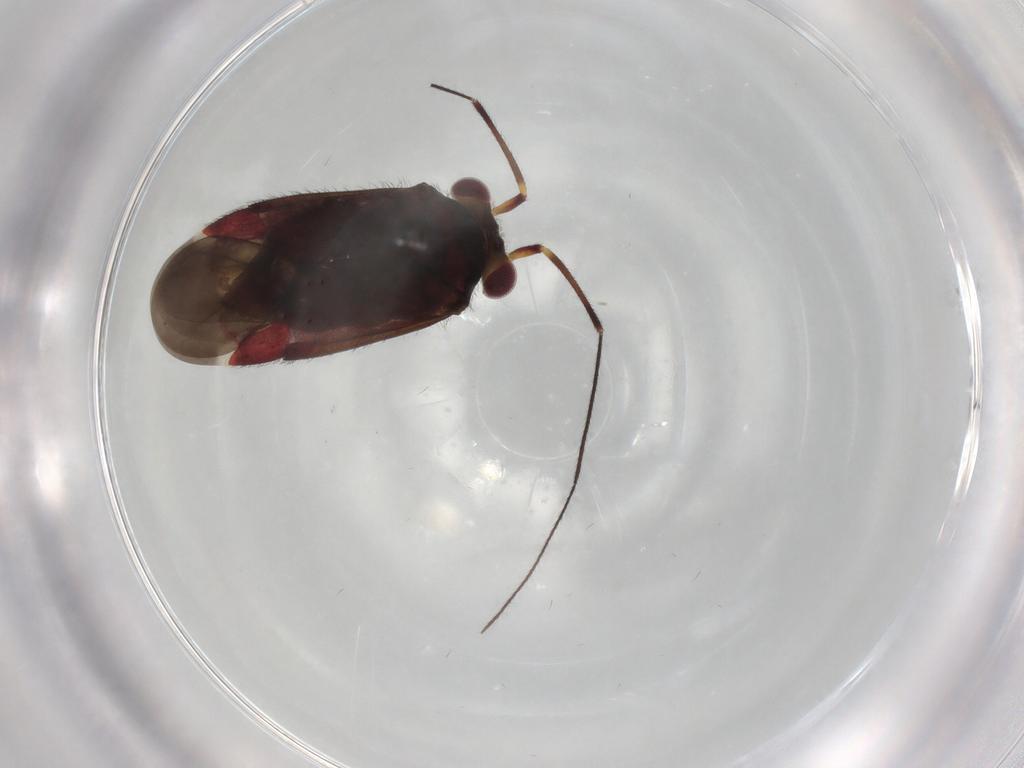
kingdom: Animalia
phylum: Arthropoda
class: Insecta
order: Hemiptera
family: Miridae
